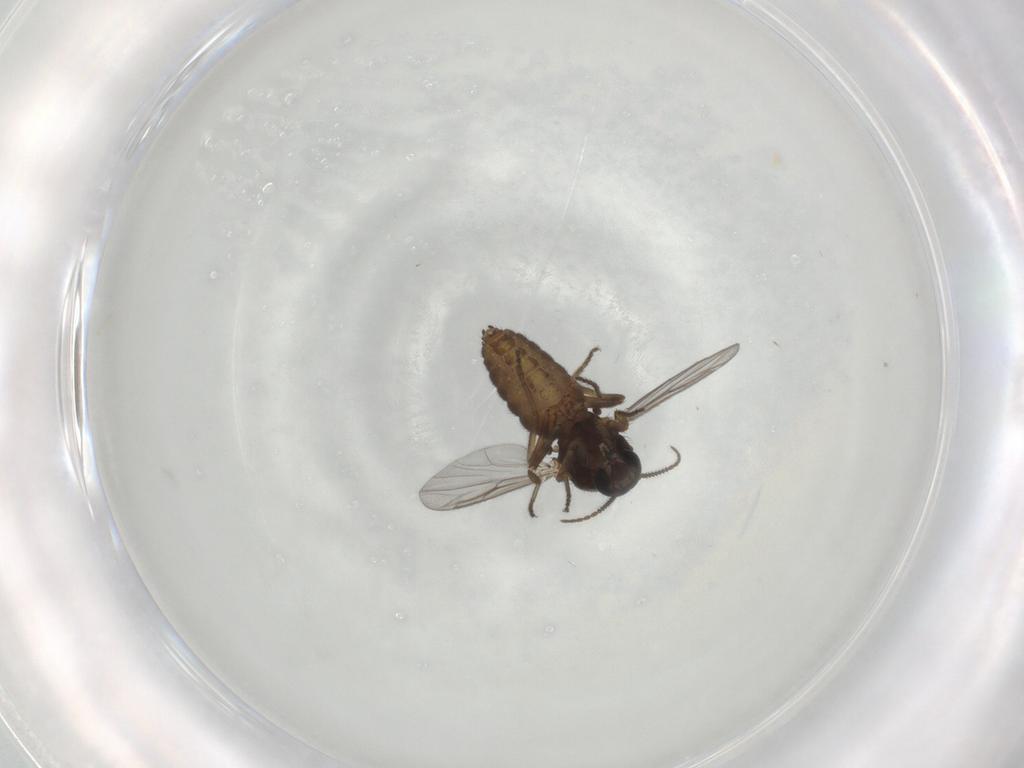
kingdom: Animalia
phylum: Arthropoda
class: Insecta
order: Diptera
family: Ceratopogonidae
